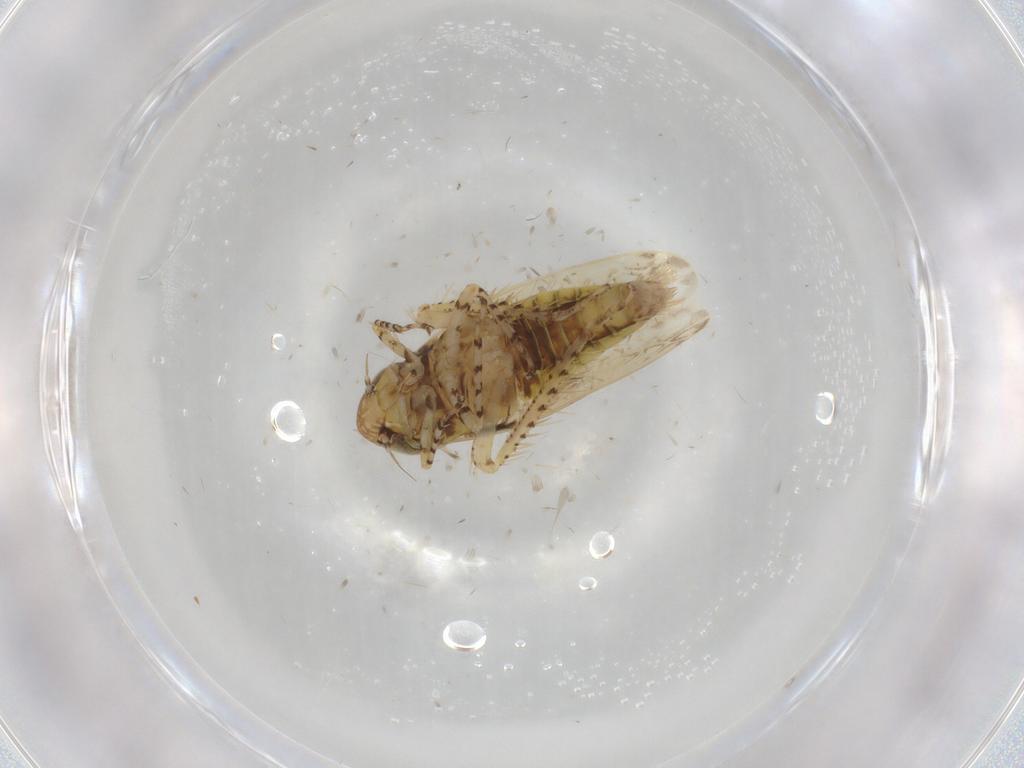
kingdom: Animalia
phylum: Arthropoda
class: Insecta
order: Hemiptera
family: Cicadellidae
